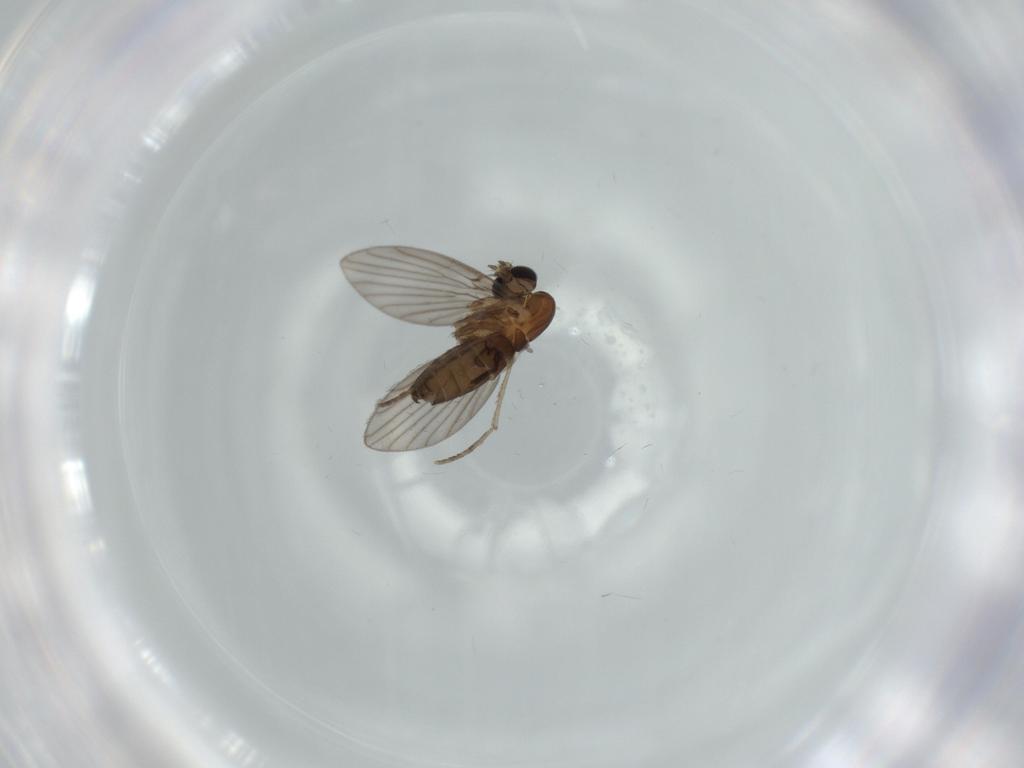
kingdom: Animalia
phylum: Arthropoda
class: Insecta
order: Diptera
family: Psychodidae
